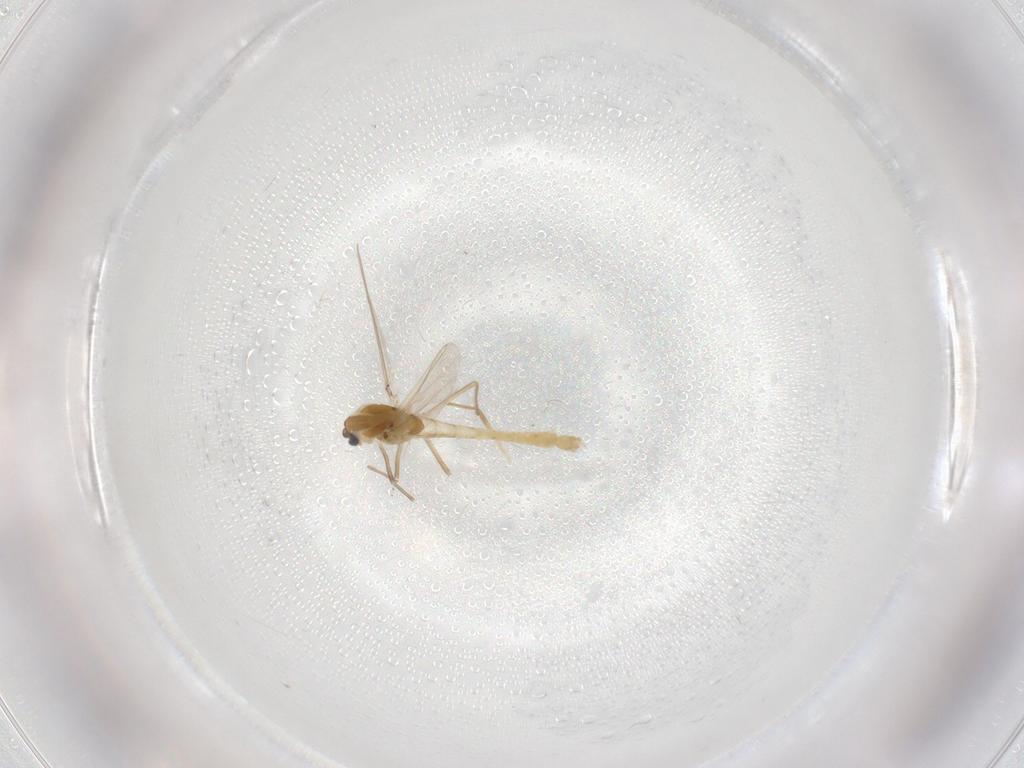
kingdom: Animalia
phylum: Arthropoda
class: Insecta
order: Diptera
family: Chironomidae
